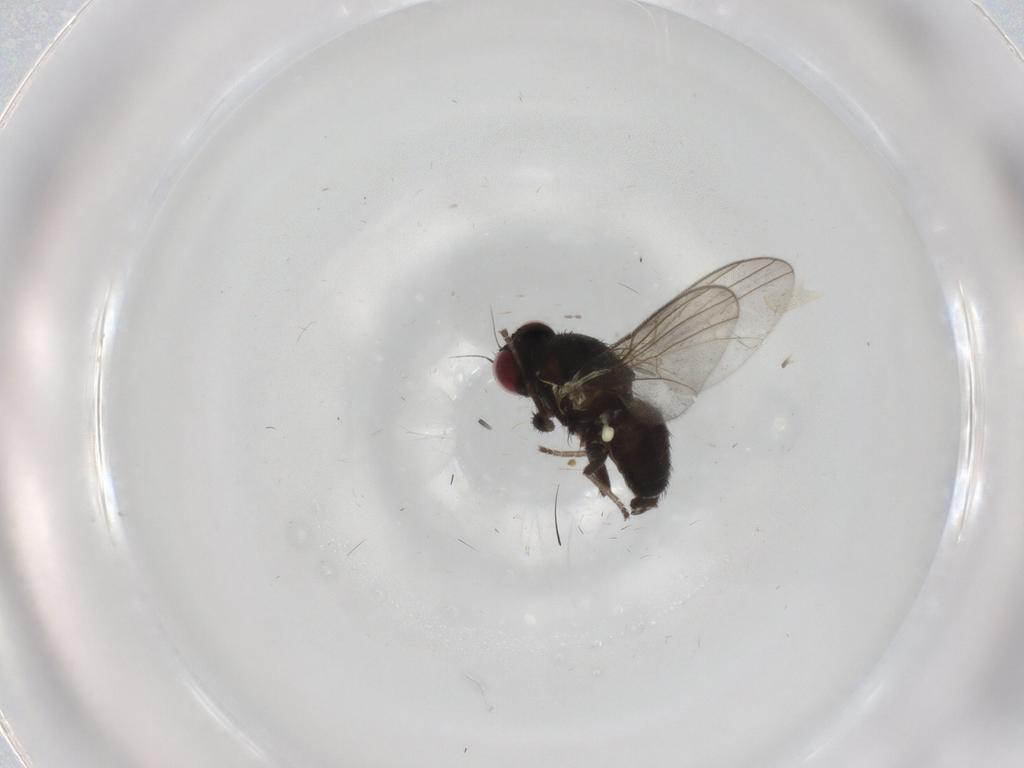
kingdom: Animalia
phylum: Arthropoda
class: Insecta
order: Diptera
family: Agromyzidae
